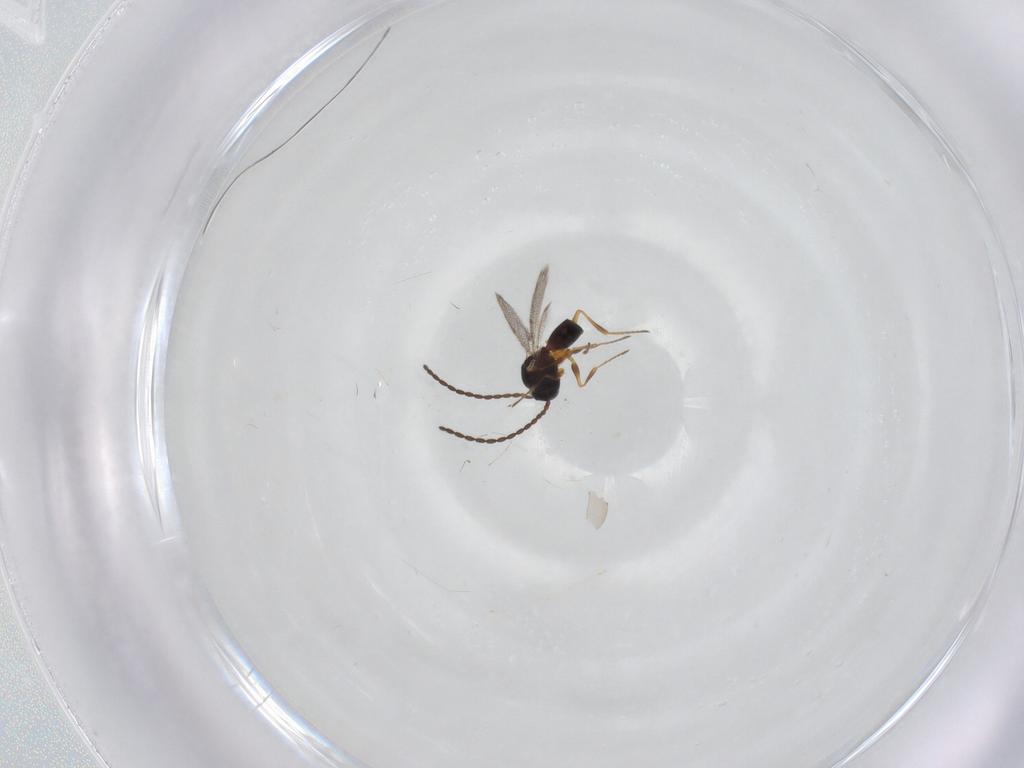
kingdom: Animalia
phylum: Arthropoda
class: Insecta
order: Hymenoptera
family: Figitidae
